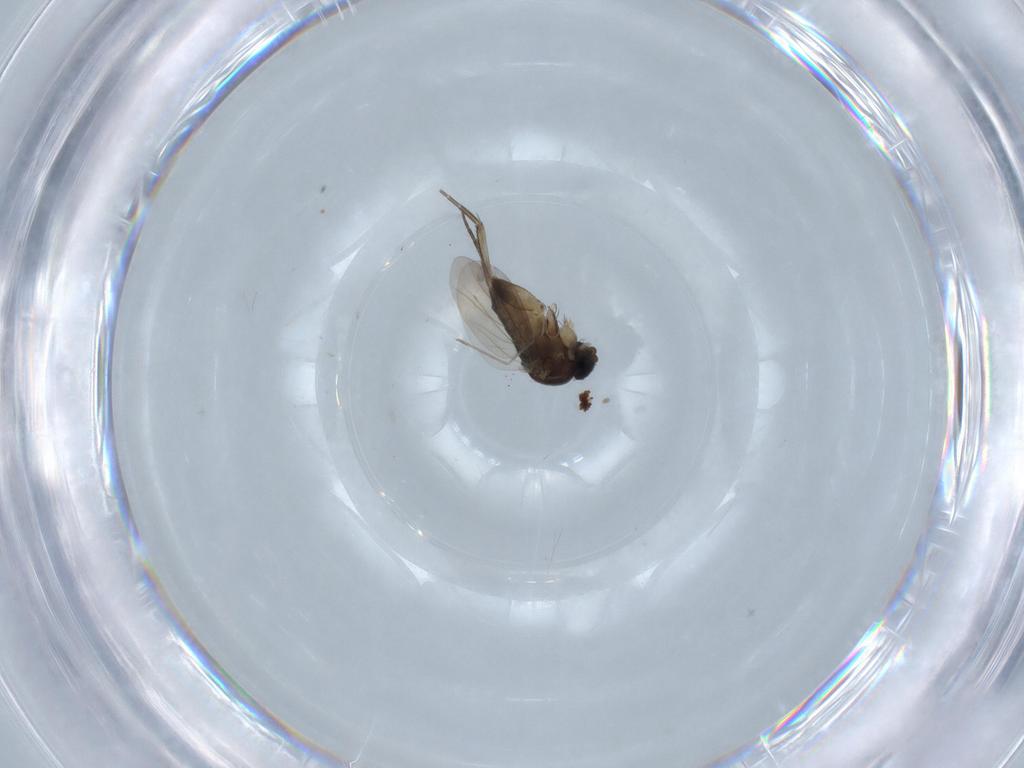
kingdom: Animalia
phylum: Arthropoda
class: Insecta
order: Diptera
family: Phoridae
